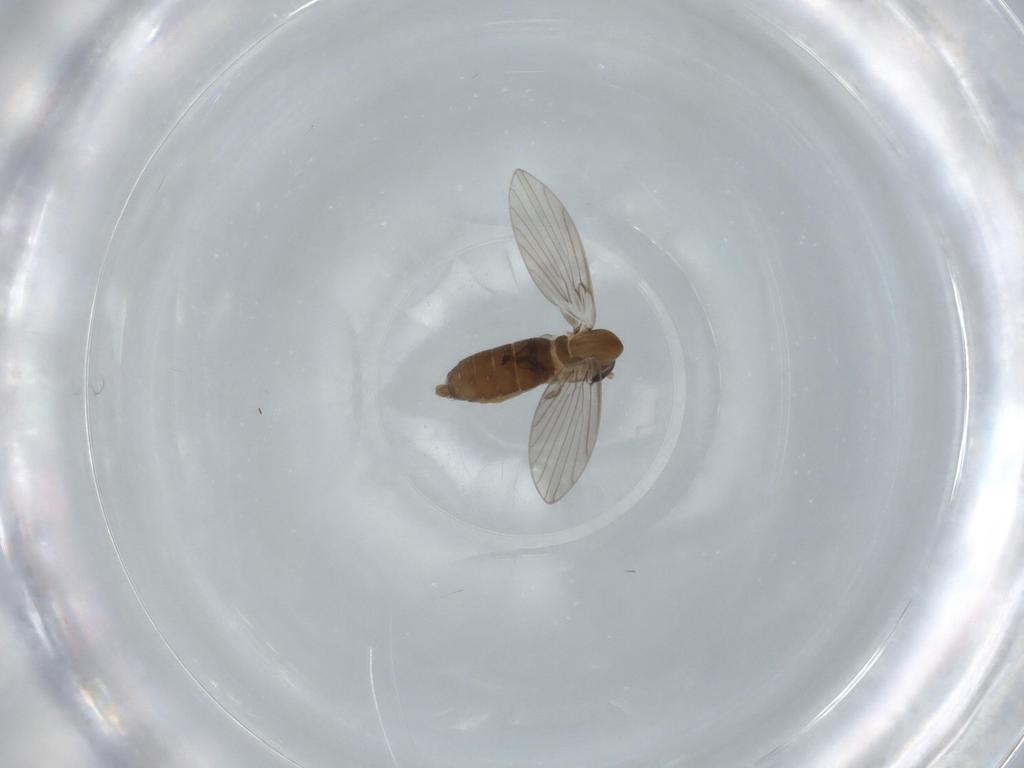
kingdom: Animalia
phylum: Arthropoda
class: Insecta
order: Diptera
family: Psychodidae
